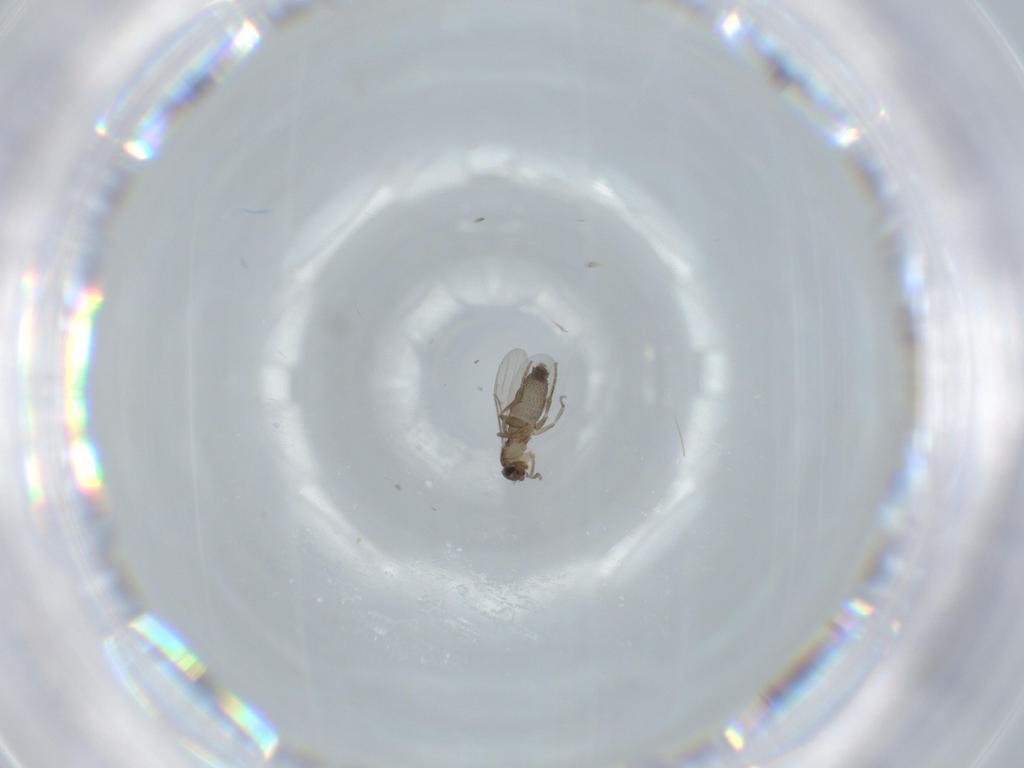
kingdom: Animalia
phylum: Arthropoda
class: Insecta
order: Diptera
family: Phoridae
